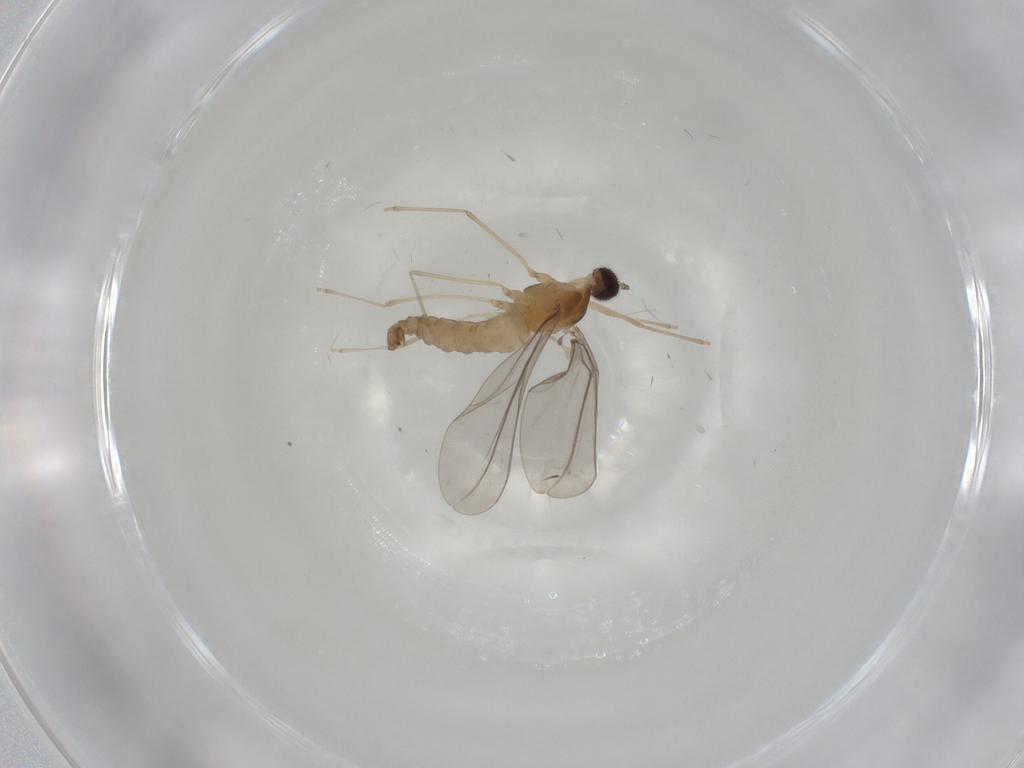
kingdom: Animalia
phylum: Arthropoda
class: Insecta
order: Diptera
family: Cecidomyiidae
